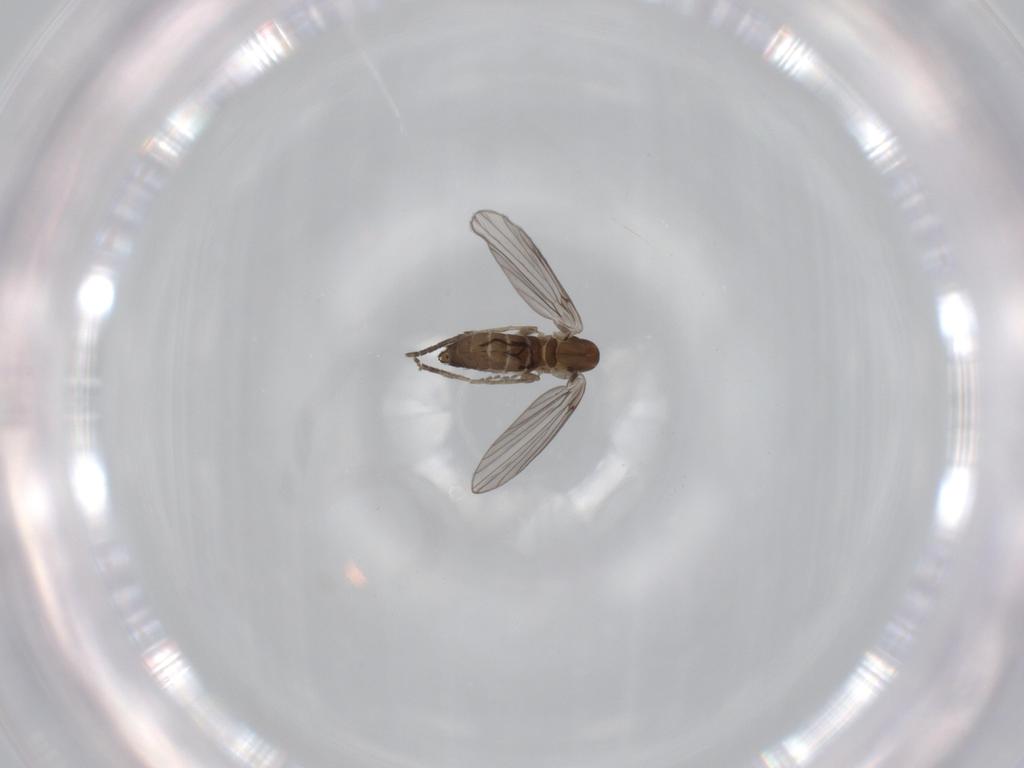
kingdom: Animalia
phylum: Arthropoda
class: Insecta
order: Diptera
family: Psychodidae
